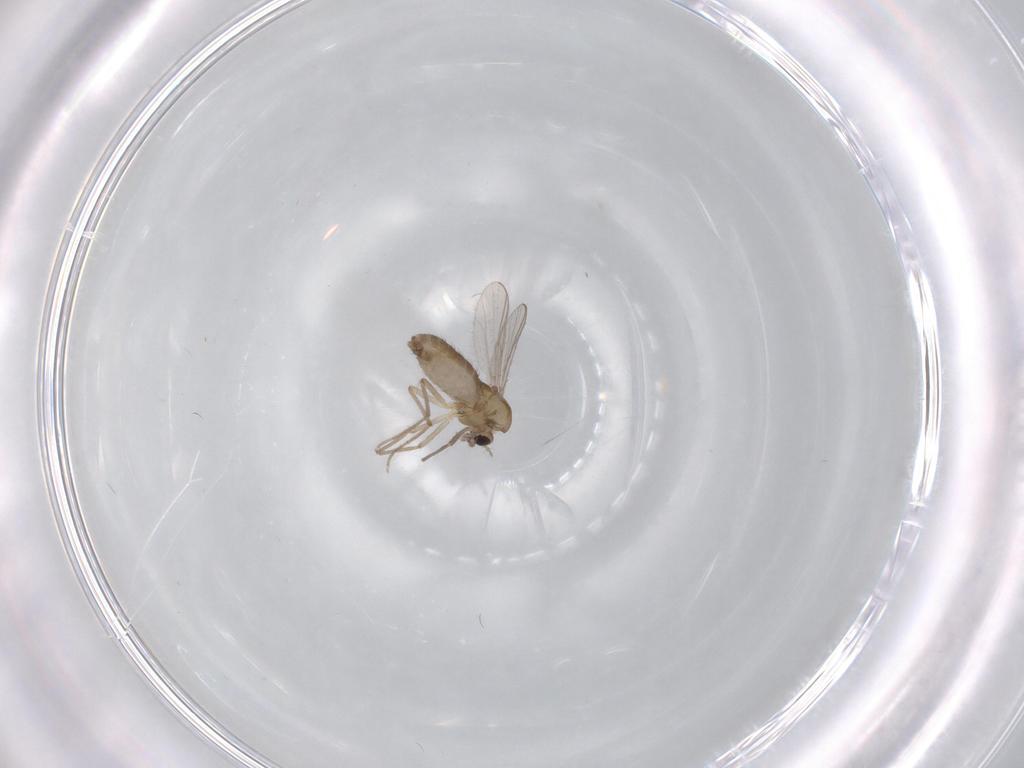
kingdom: Animalia
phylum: Arthropoda
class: Insecta
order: Diptera
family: Chironomidae
